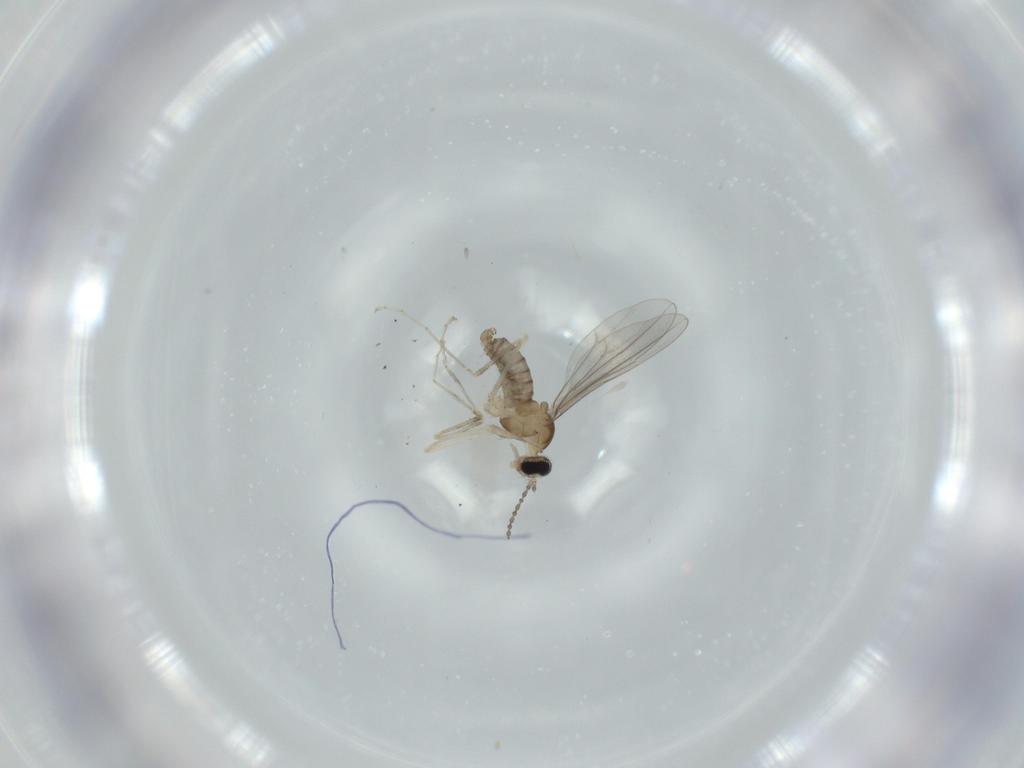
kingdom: Animalia
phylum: Arthropoda
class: Insecta
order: Diptera
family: Cecidomyiidae
